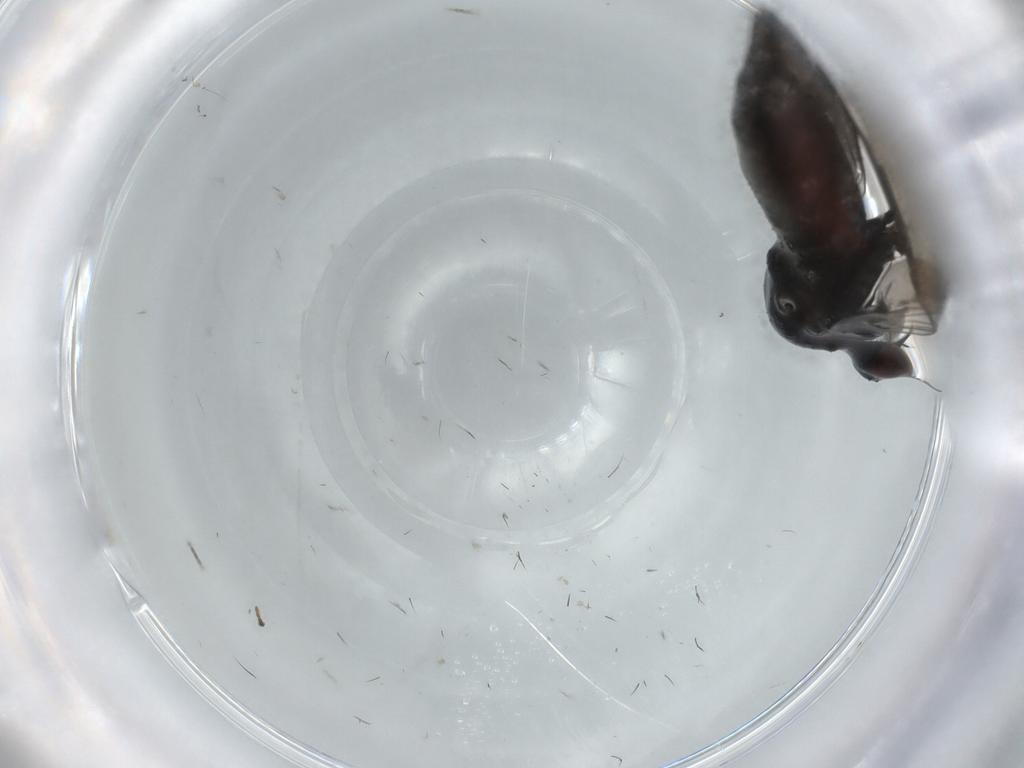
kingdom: Animalia
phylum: Arthropoda
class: Insecta
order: Diptera
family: Empididae
